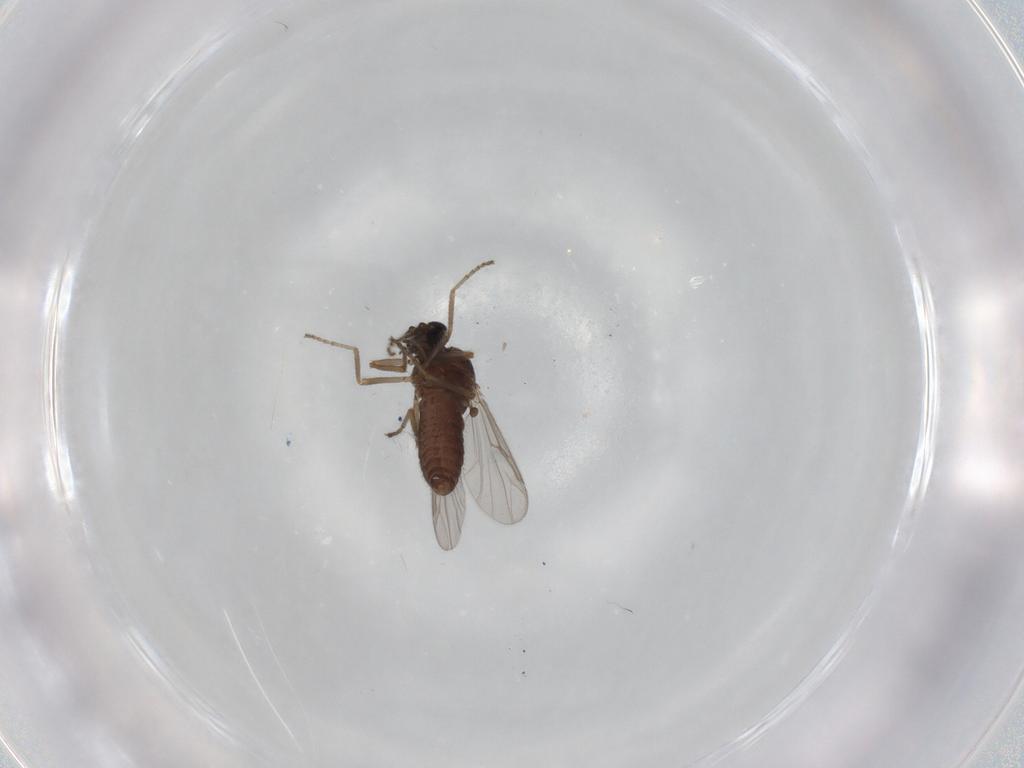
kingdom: Animalia
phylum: Arthropoda
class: Insecta
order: Diptera
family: Ceratopogonidae
